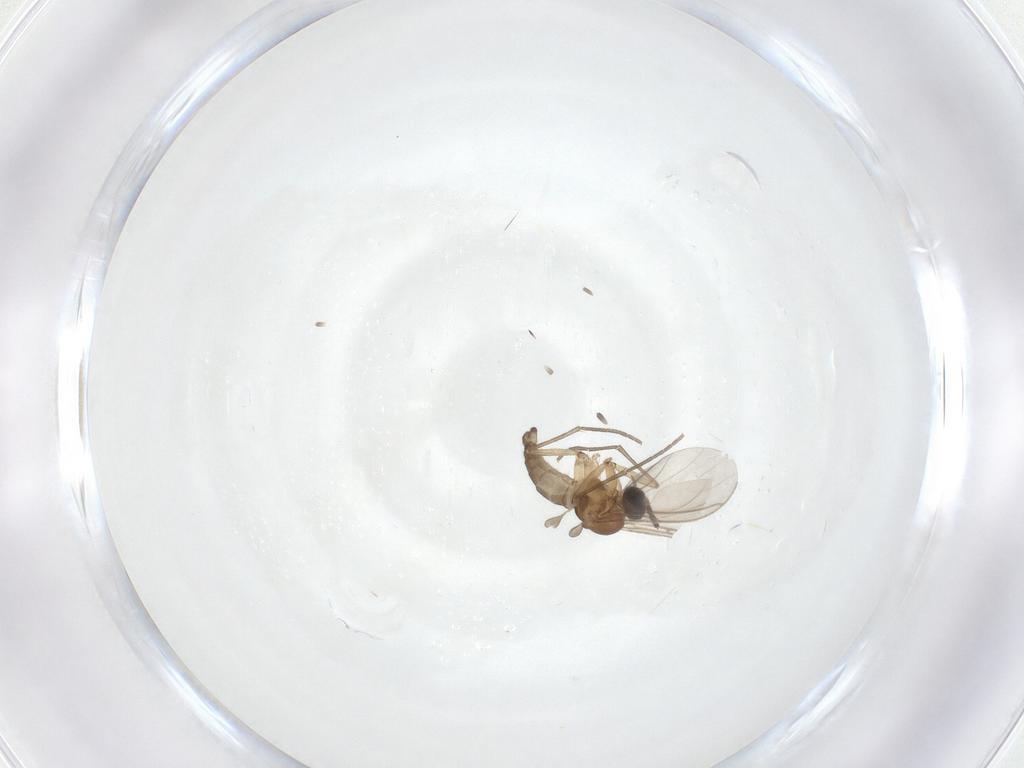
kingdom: Animalia
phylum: Arthropoda
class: Insecta
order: Diptera
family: Sciaridae
